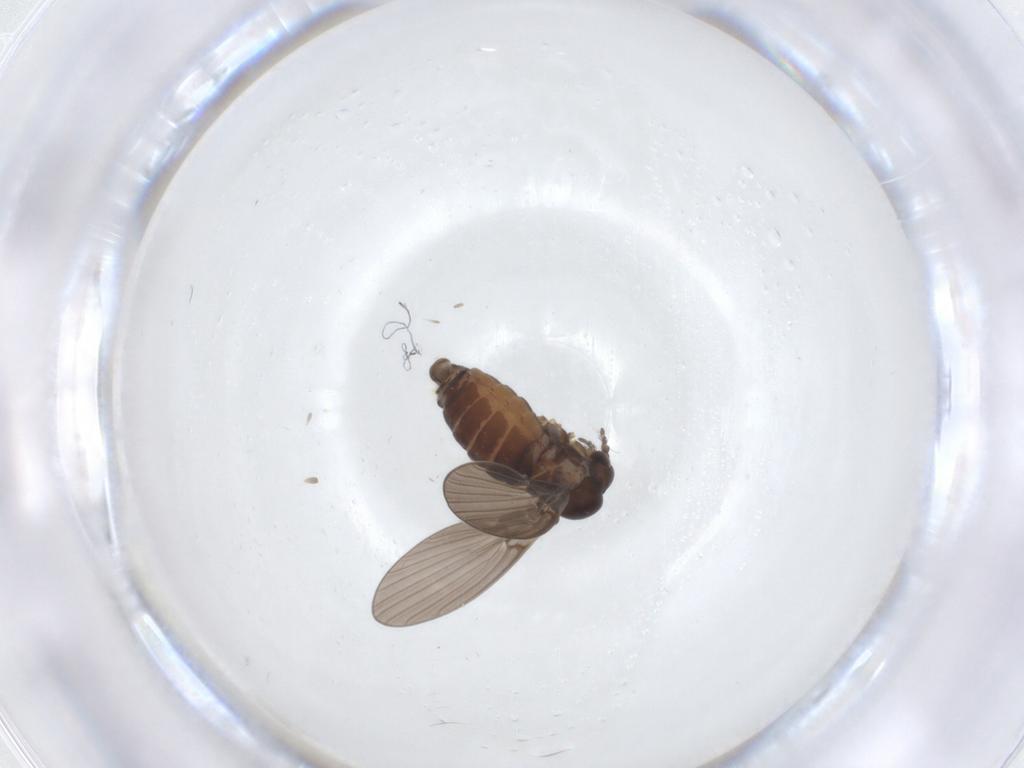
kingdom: Animalia
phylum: Arthropoda
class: Insecta
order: Diptera
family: Psychodidae
